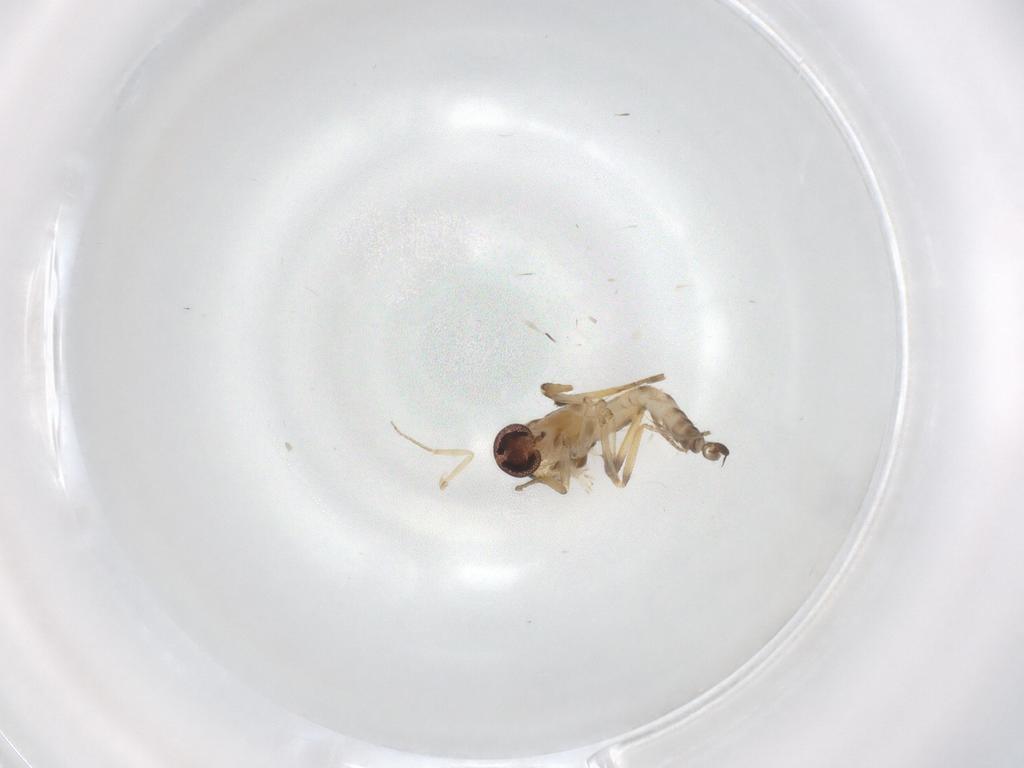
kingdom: Animalia
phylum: Arthropoda
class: Insecta
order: Diptera
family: Ceratopogonidae
